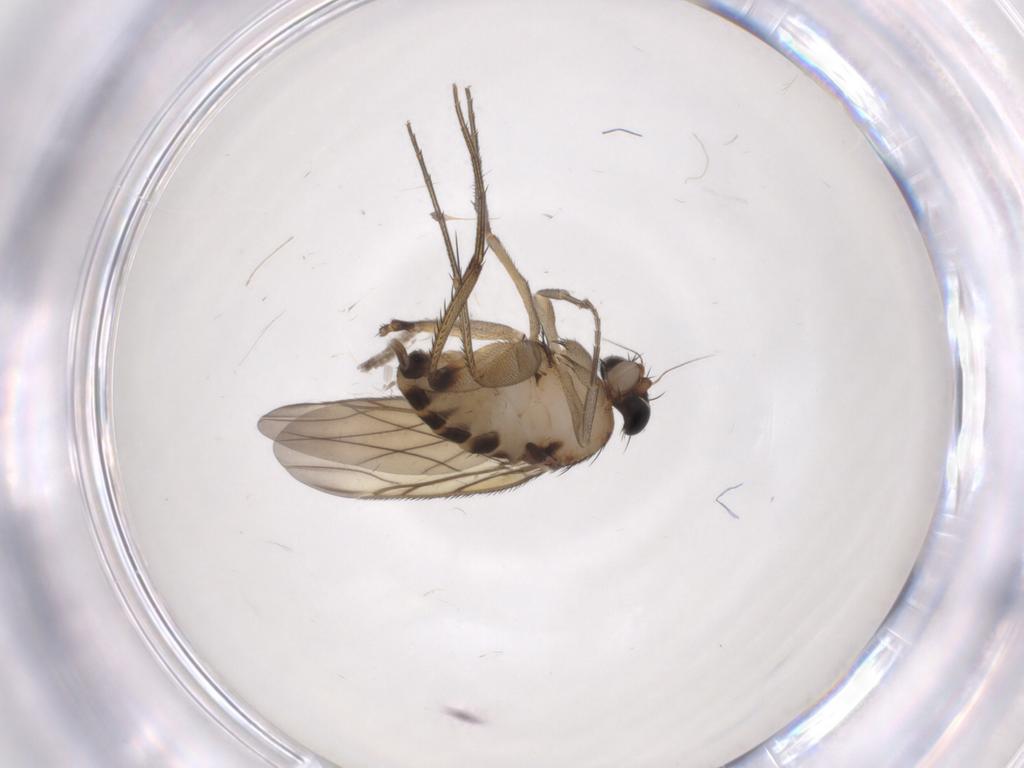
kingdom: Animalia
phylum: Arthropoda
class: Insecta
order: Diptera
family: Phoridae
